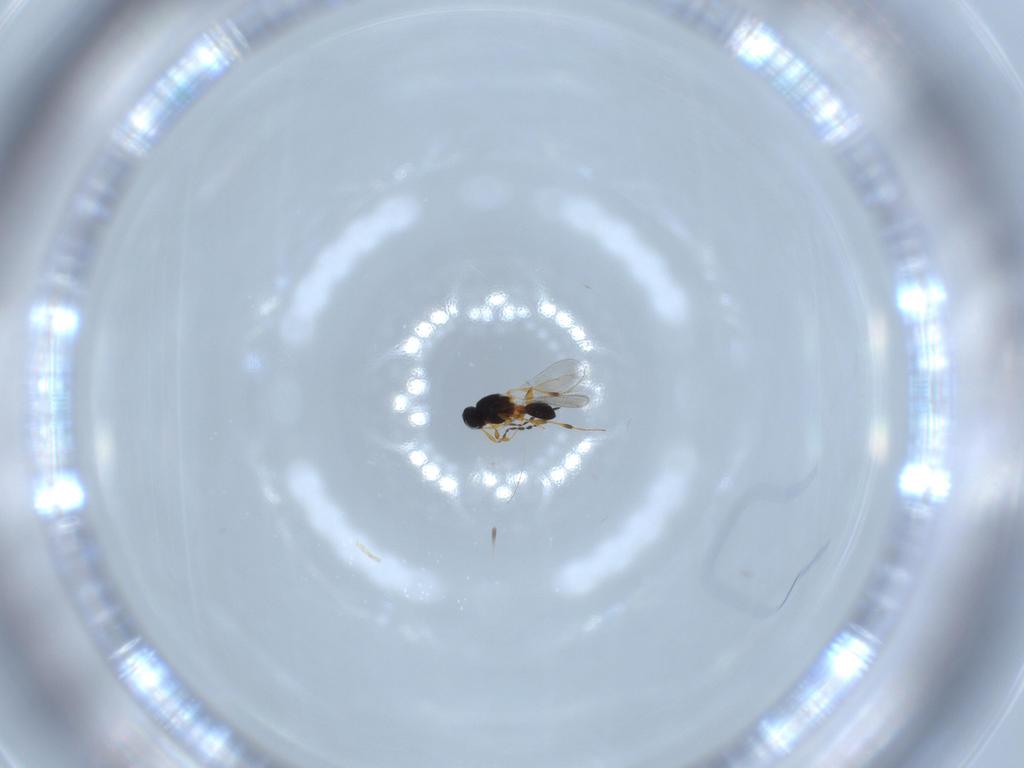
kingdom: Animalia
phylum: Arthropoda
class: Insecta
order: Hymenoptera
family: Platygastridae
